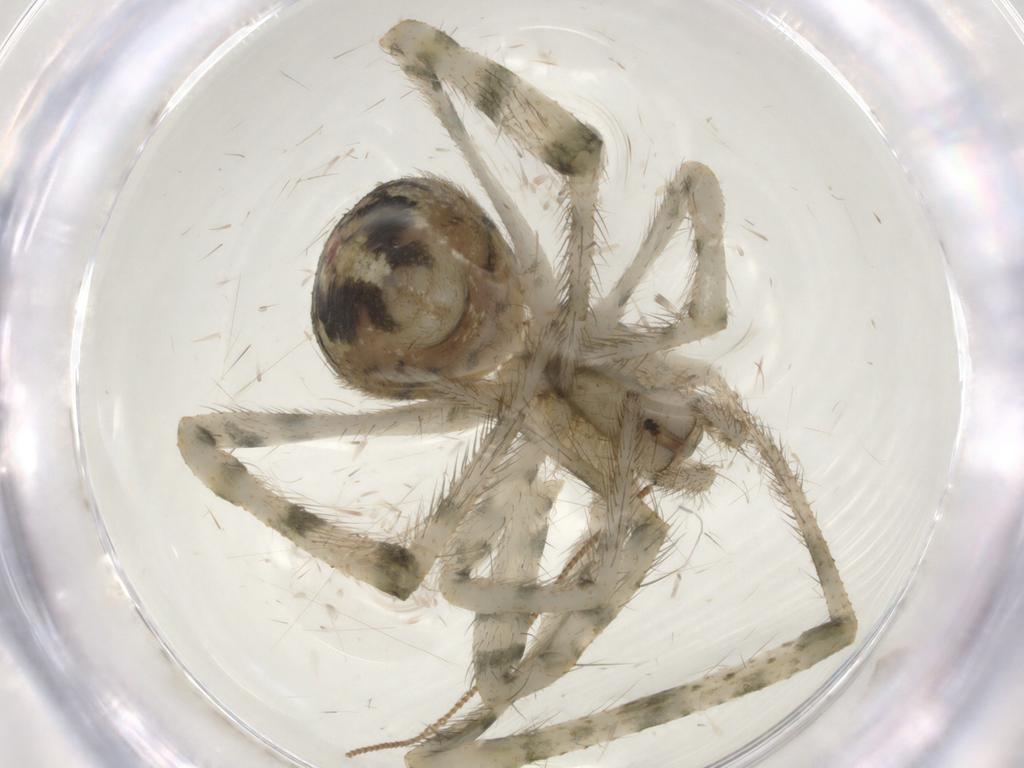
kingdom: Animalia
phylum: Arthropoda
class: Arachnida
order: Araneae
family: Theridiidae
